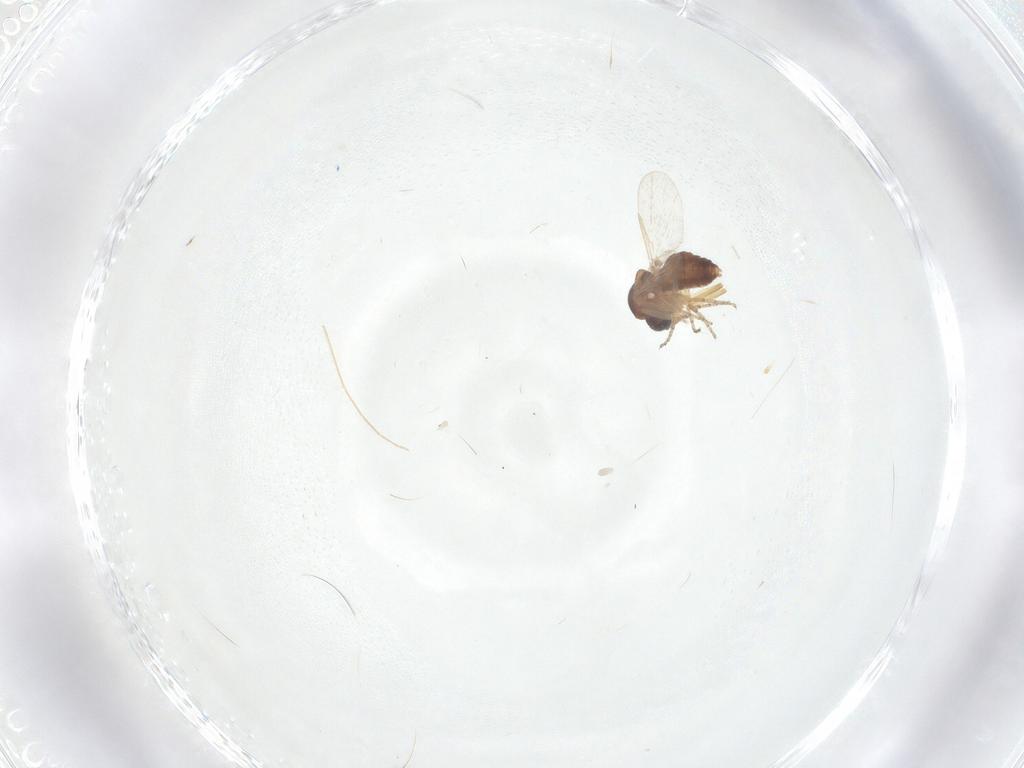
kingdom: Animalia
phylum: Arthropoda
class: Insecta
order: Diptera
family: Ceratopogonidae
